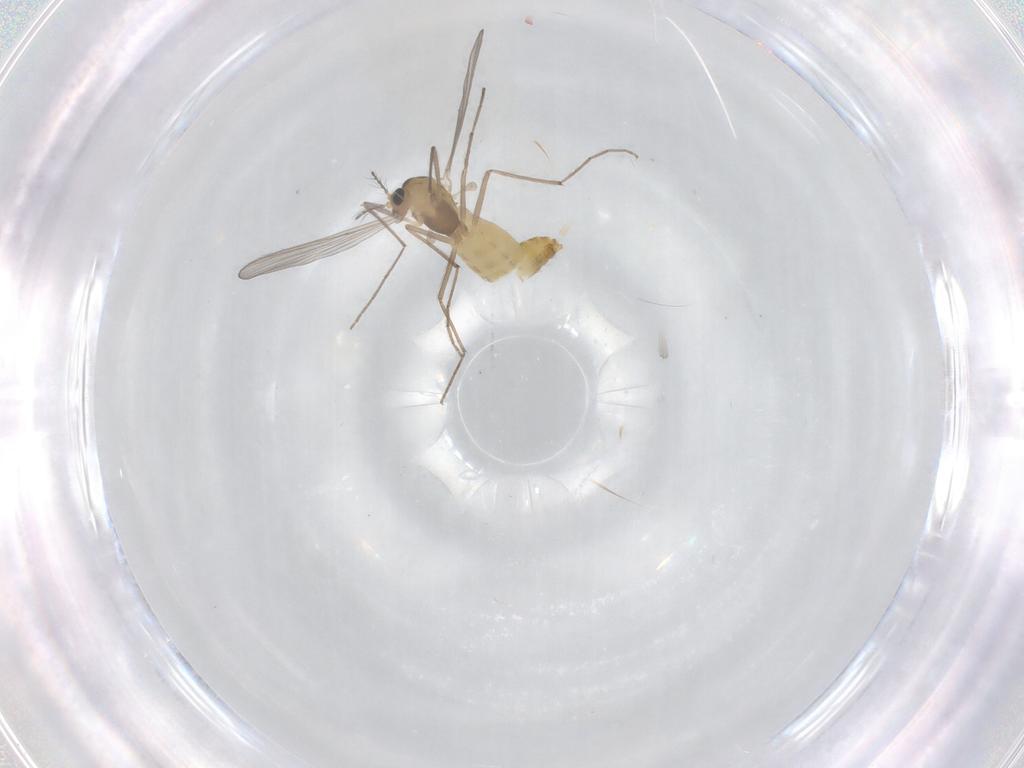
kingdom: Animalia
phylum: Arthropoda
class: Insecta
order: Diptera
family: Chironomidae
